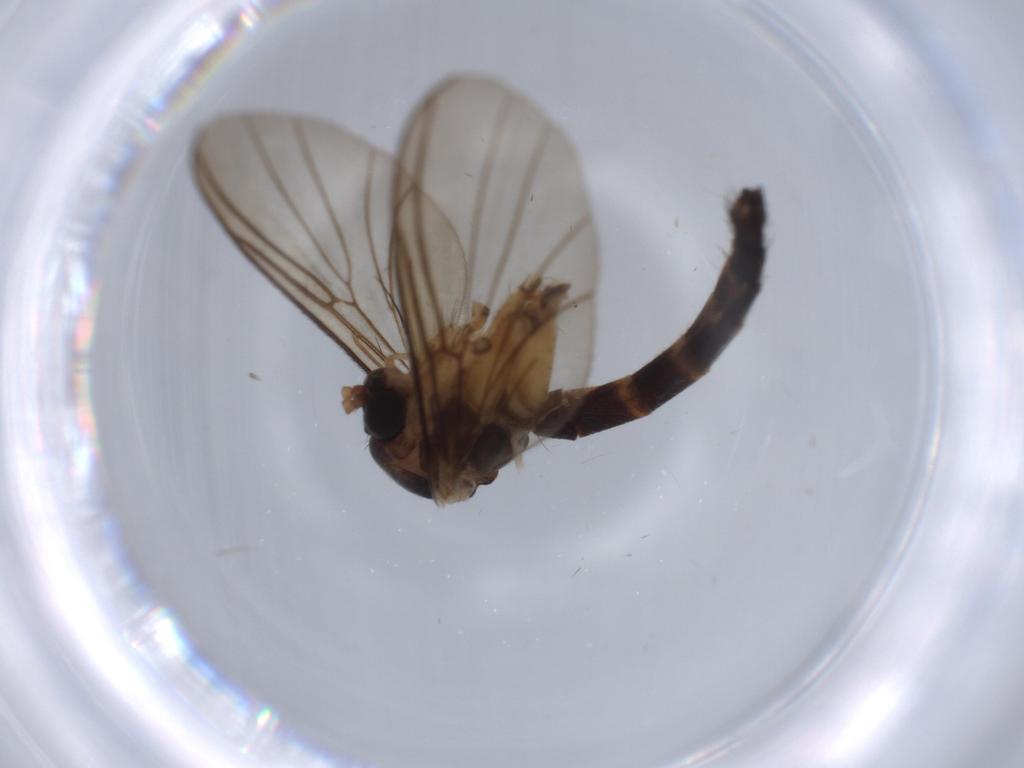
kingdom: Animalia
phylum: Arthropoda
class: Insecta
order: Diptera
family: Mycetophilidae
